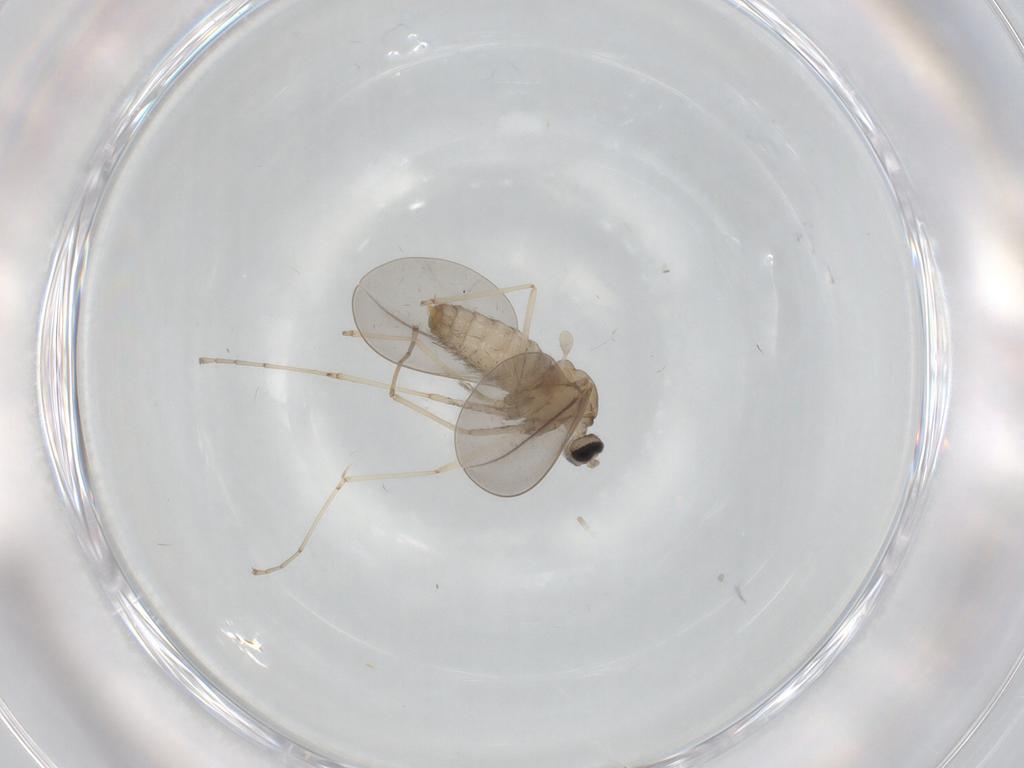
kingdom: Animalia
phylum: Arthropoda
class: Insecta
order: Diptera
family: Cecidomyiidae
